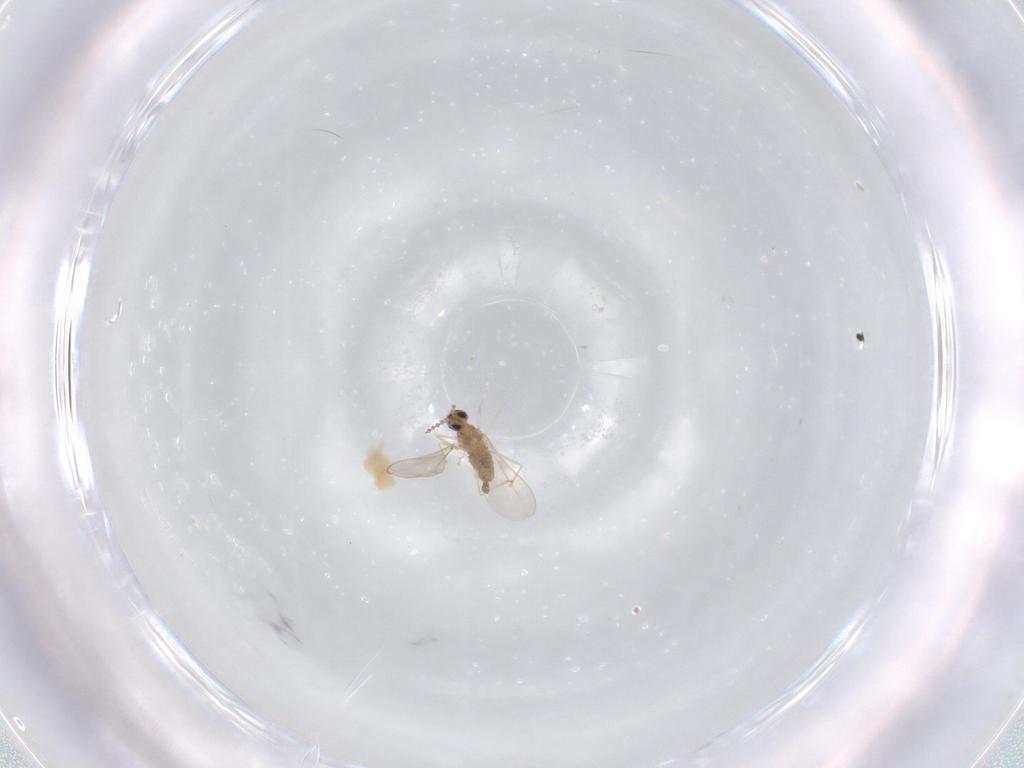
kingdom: Animalia
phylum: Arthropoda
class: Insecta
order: Diptera
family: Cecidomyiidae
